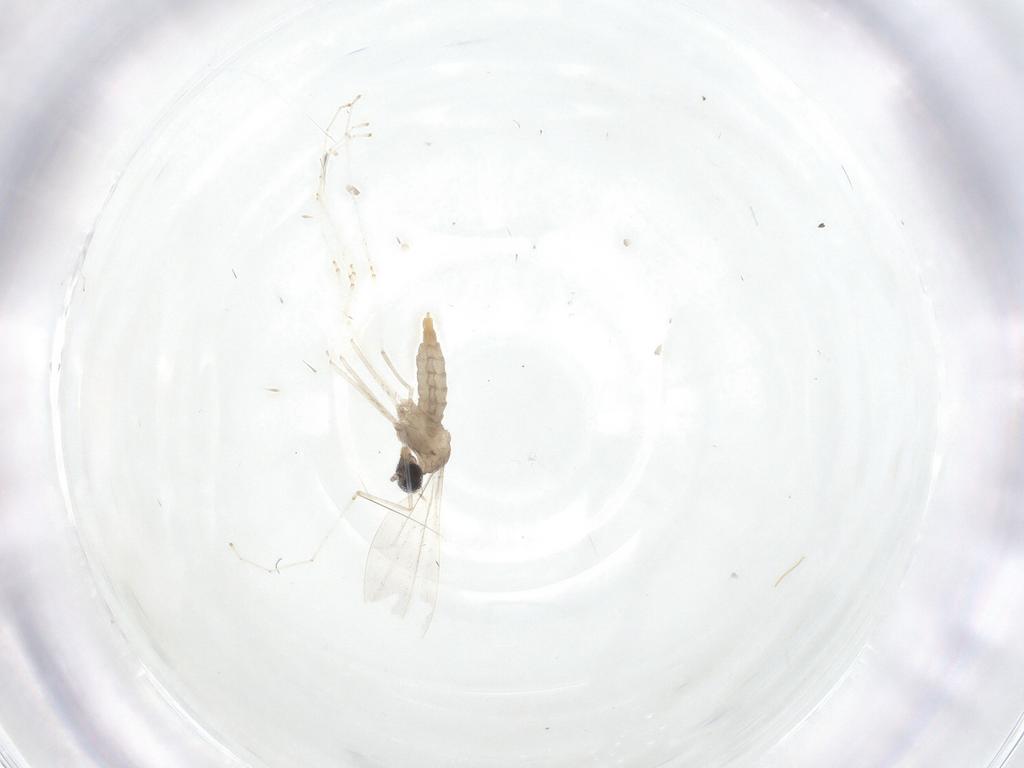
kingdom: Animalia
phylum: Arthropoda
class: Insecta
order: Diptera
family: Cecidomyiidae
